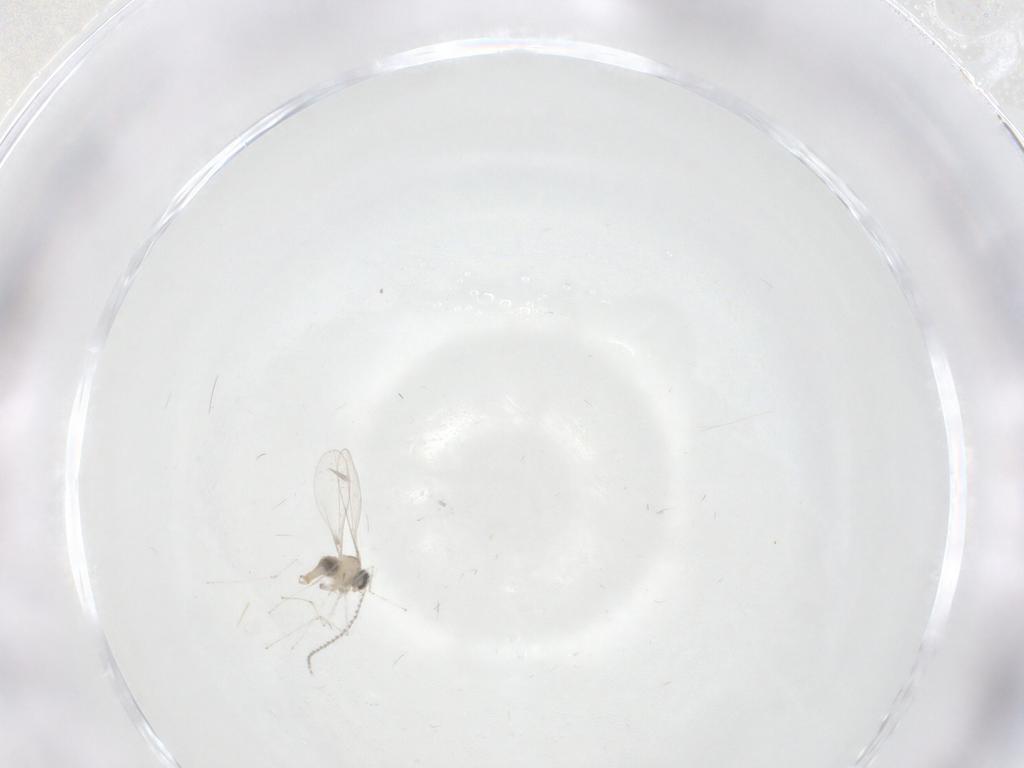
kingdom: Animalia
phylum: Arthropoda
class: Insecta
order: Diptera
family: Cecidomyiidae
